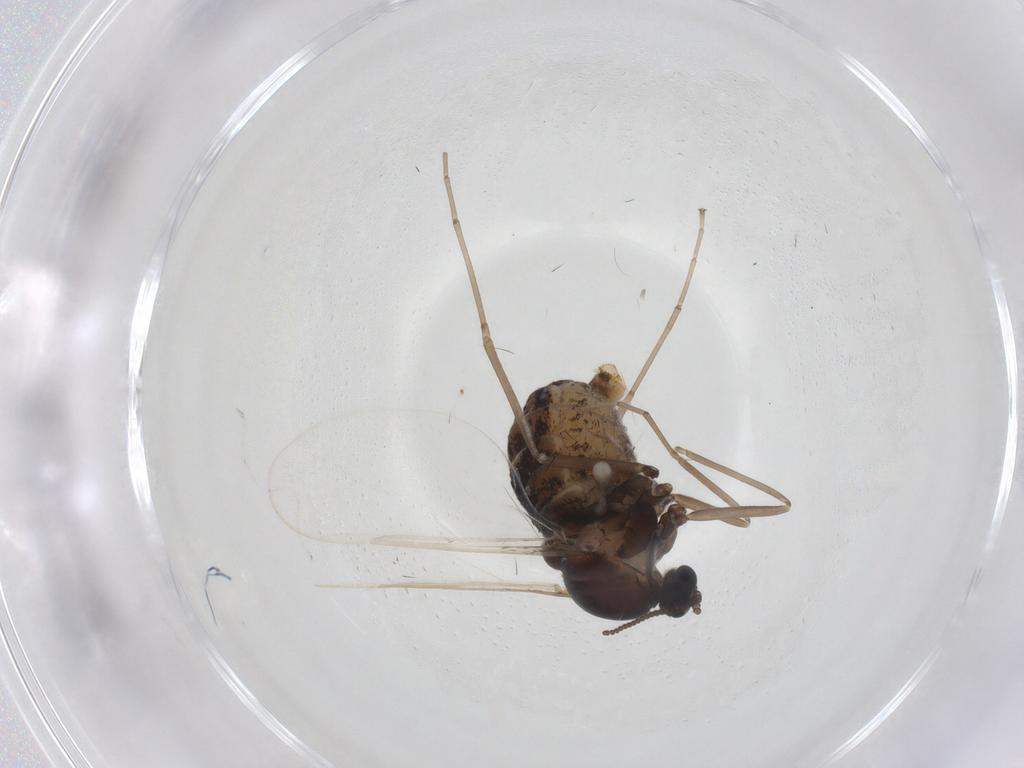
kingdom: Animalia
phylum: Arthropoda
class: Insecta
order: Diptera
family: Cecidomyiidae
